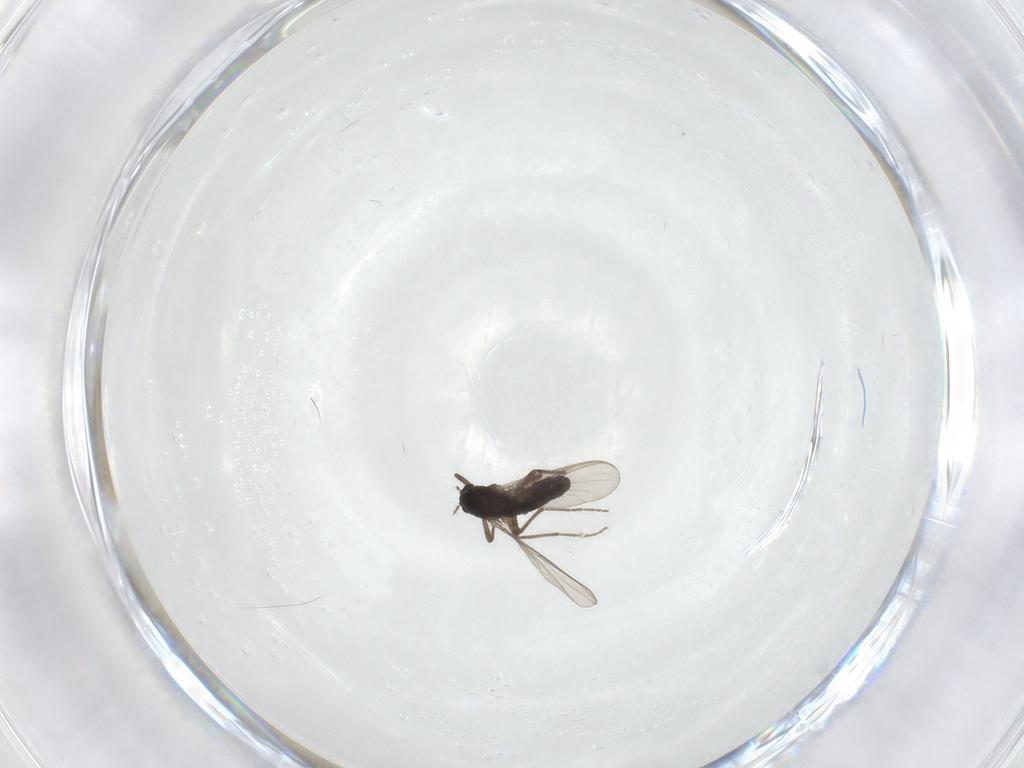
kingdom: Animalia
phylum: Arthropoda
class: Insecta
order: Diptera
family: Chironomidae
